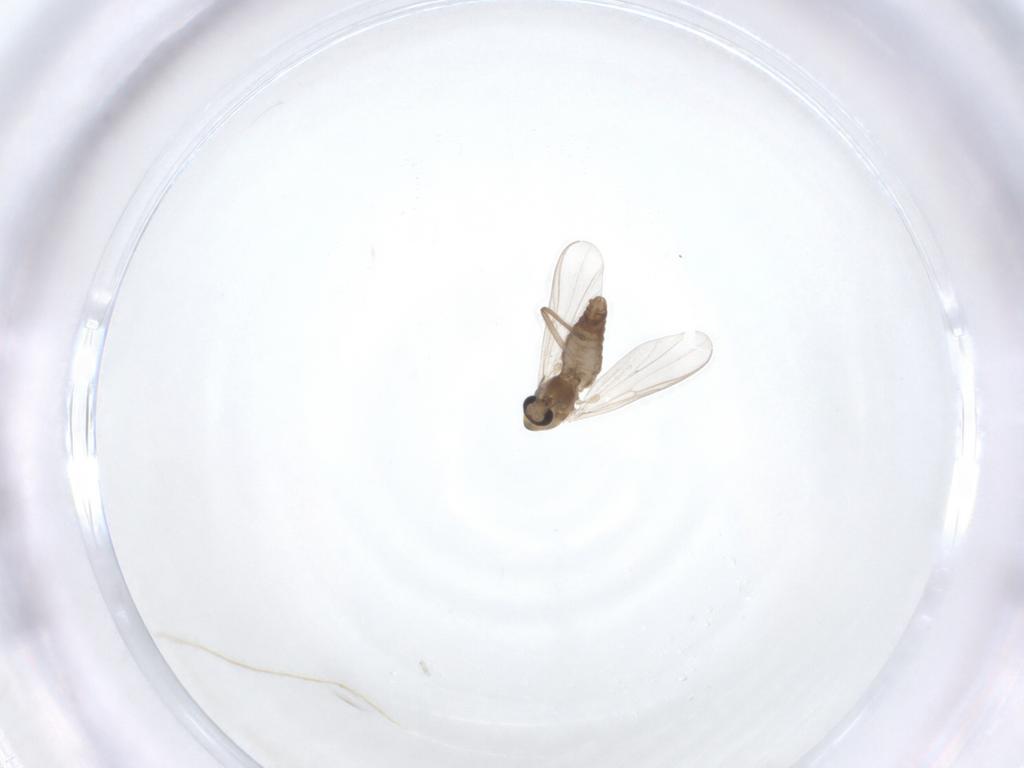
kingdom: Animalia
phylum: Arthropoda
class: Insecta
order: Diptera
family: Chironomidae
